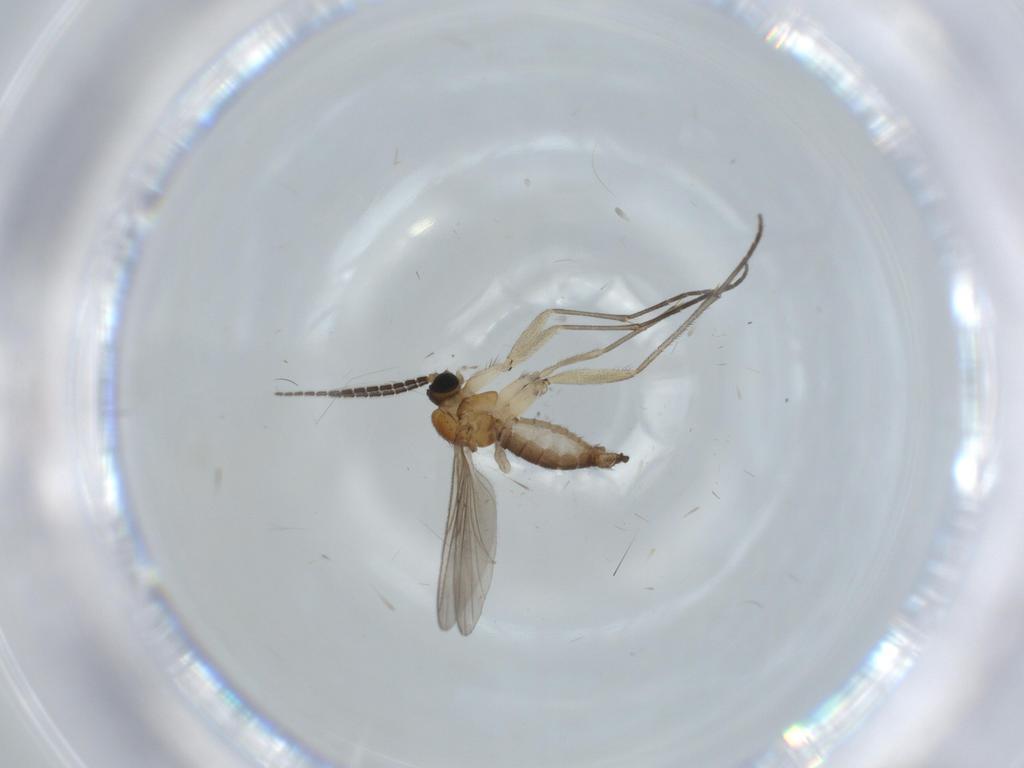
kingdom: Animalia
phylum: Arthropoda
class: Insecta
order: Diptera
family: Sciaridae
